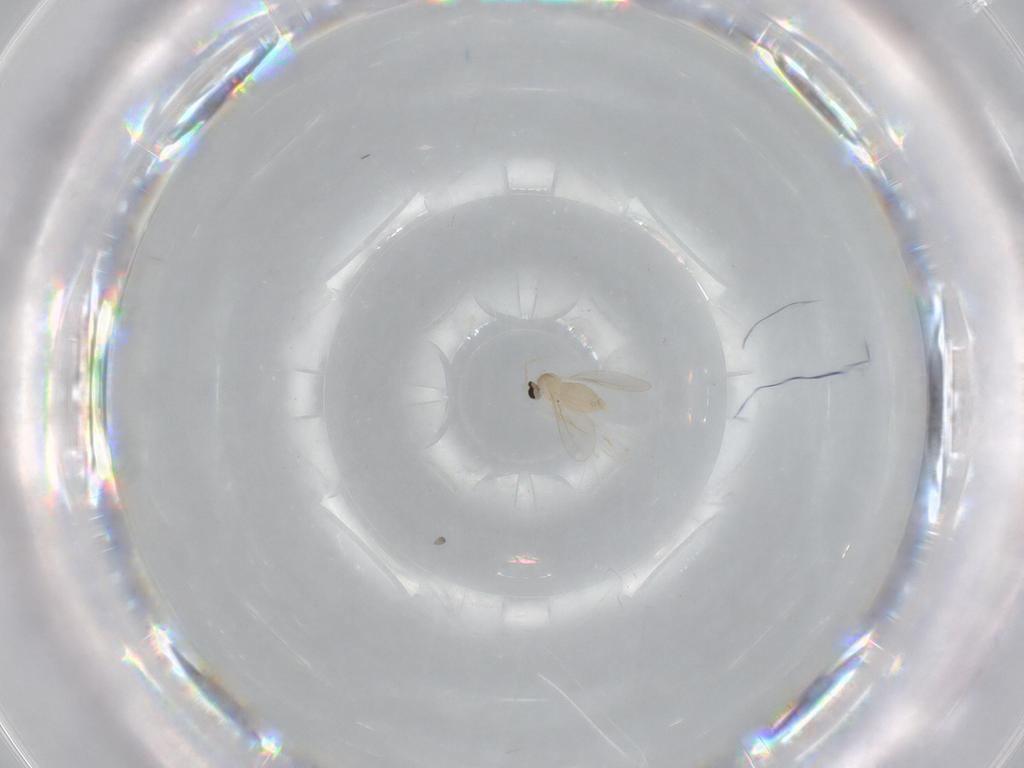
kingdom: Animalia
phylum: Arthropoda
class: Insecta
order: Diptera
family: Cecidomyiidae
